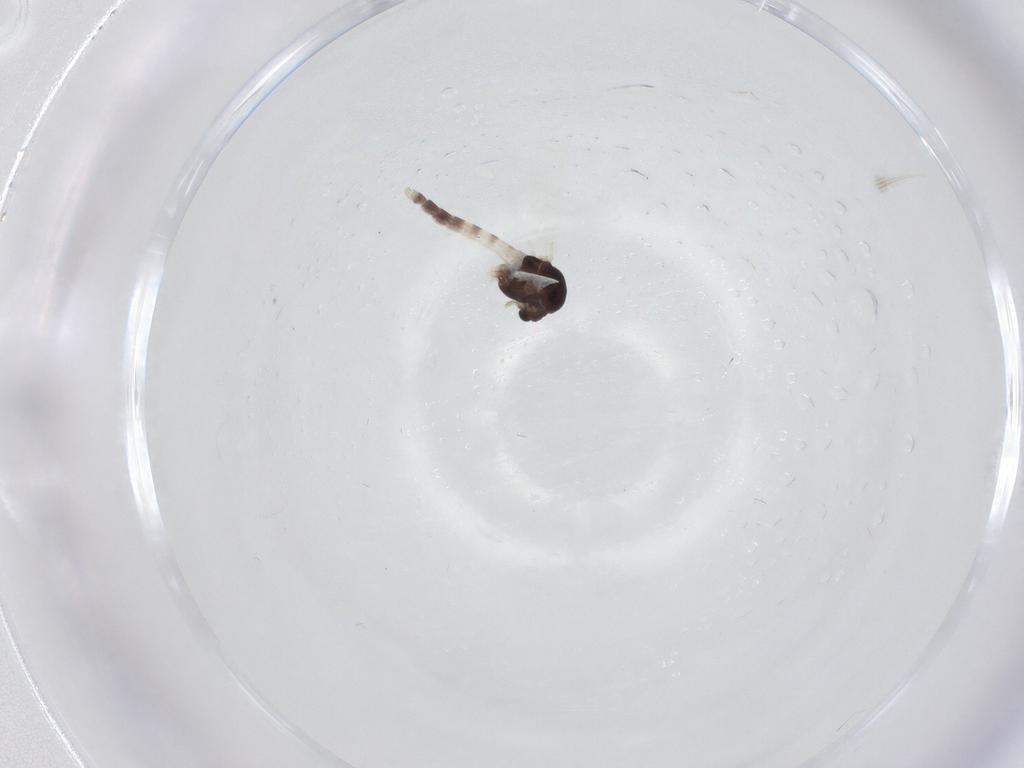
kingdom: Animalia
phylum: Arthropoda
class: Insecta
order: Diptera
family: Chironomidae
